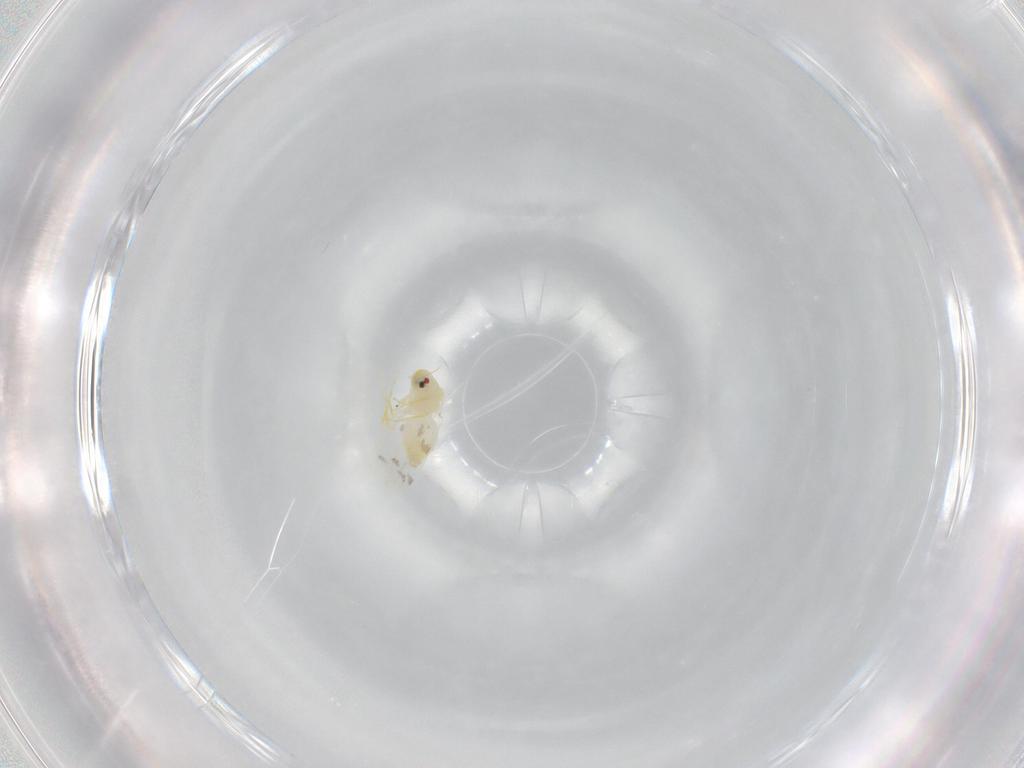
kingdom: Animalia
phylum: Arthropoda
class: Insecta
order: Hemiptera
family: Aleyrodidae
